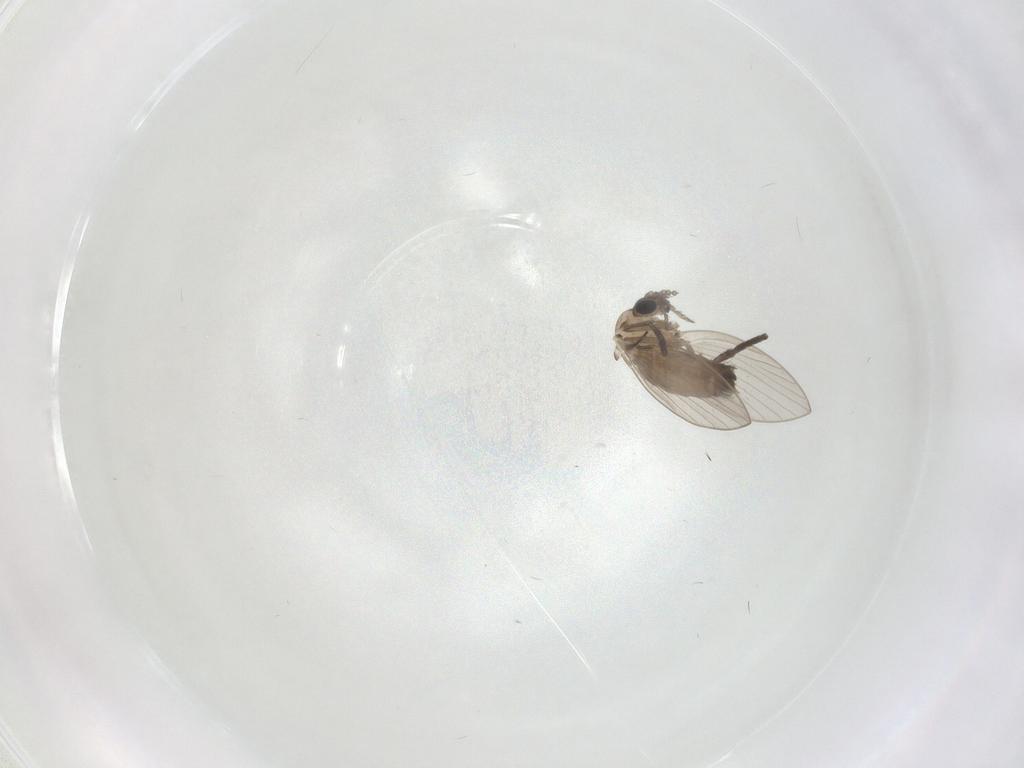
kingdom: Animalia
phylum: Arthropoda
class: Insecta
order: Diptera
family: Psychodidae
